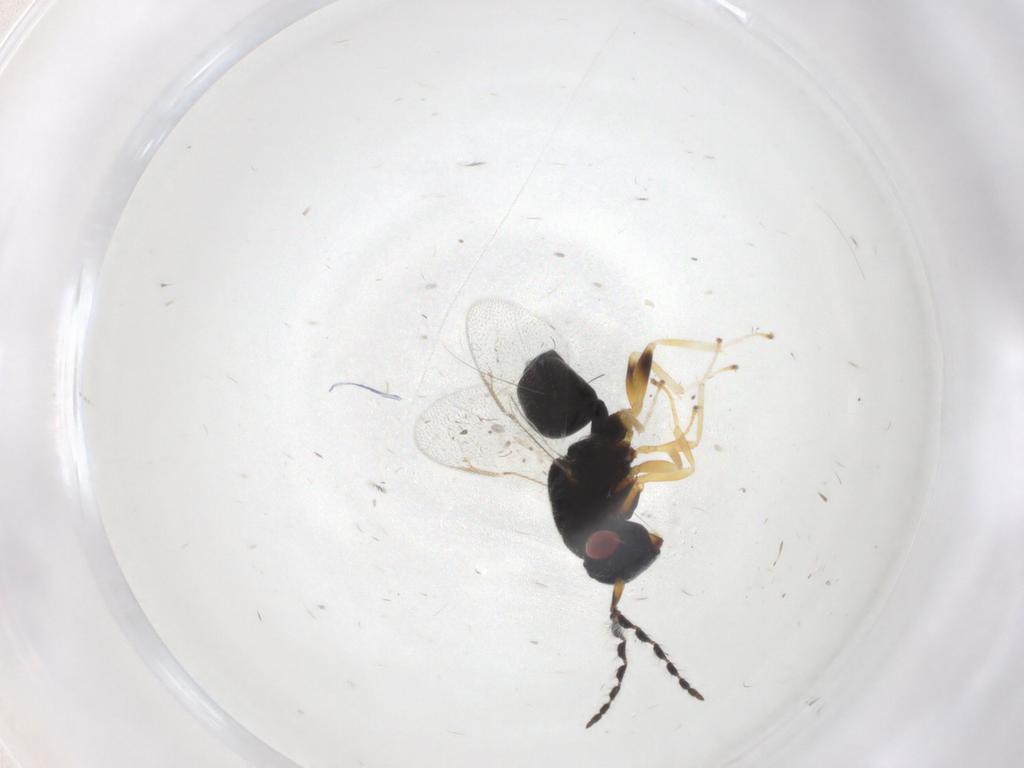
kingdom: Animalia
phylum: Arthropoda
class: Insecta
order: Hymenoptera
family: Eurytomidae
